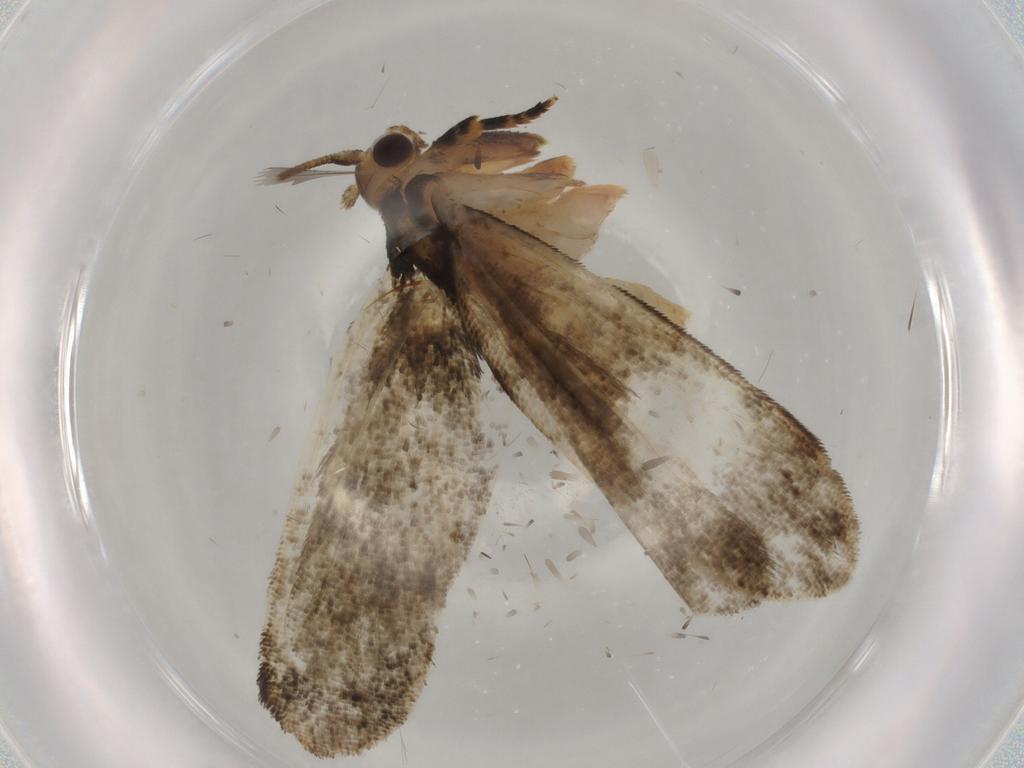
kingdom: Animalia
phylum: Arthropoda
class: Insecta
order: Lepidoptera
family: Tineidae
